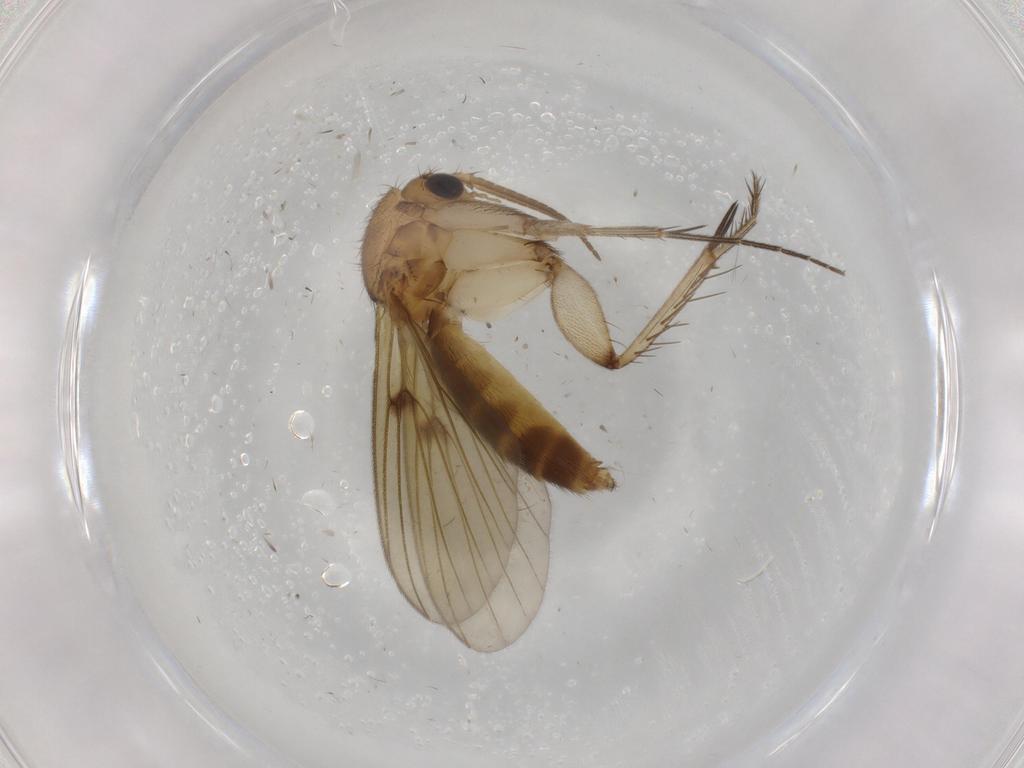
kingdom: Animalia
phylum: Arthropoda
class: Insecta
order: Diptera
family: Chloropidae
